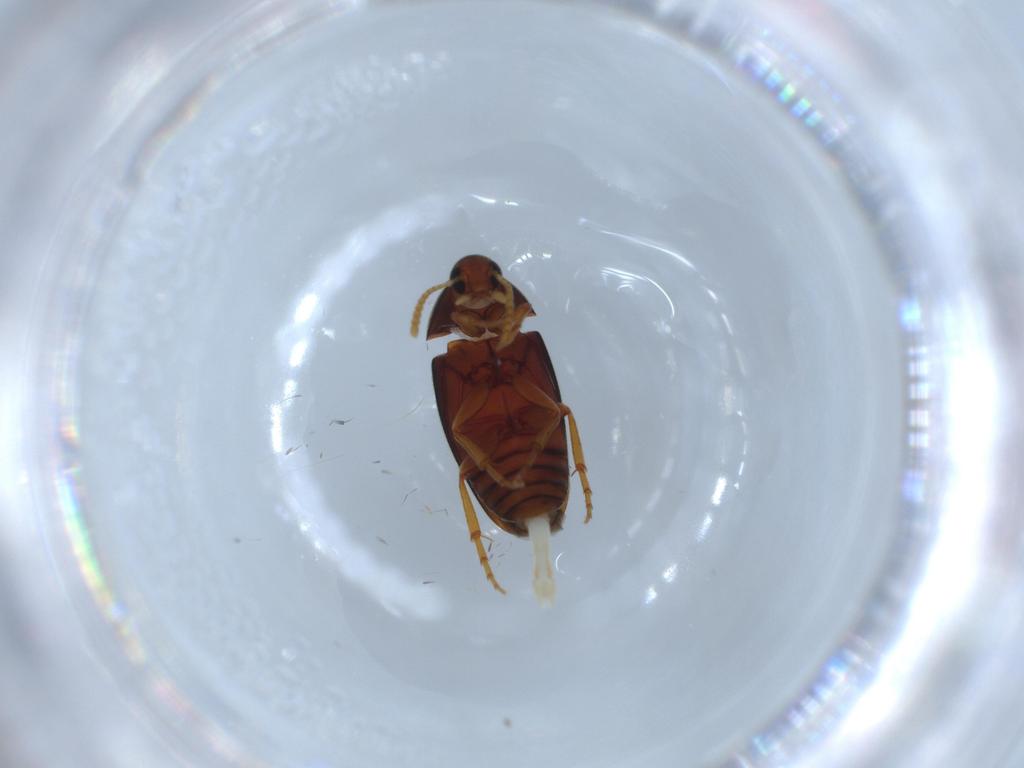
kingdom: Animalia
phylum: Arthropoda
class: Insecta
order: Coleoptera
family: Scraptiidae
